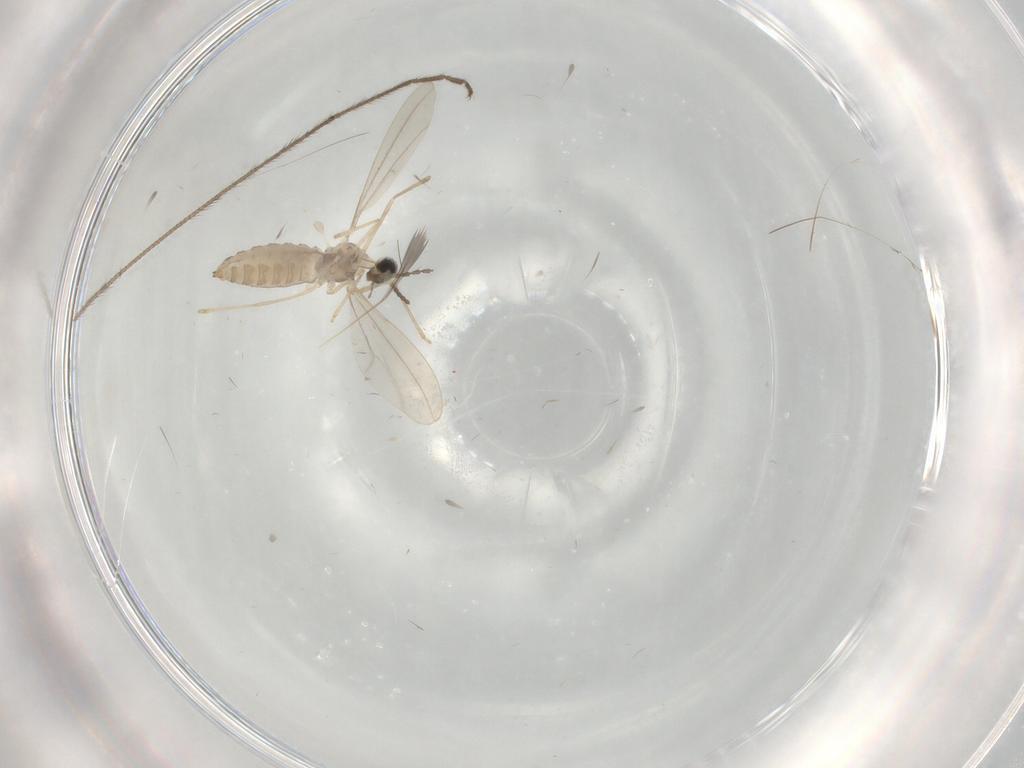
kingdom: Animalia
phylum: Arthropoda
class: Insecta
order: Diptera
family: Cecidomyiidae
